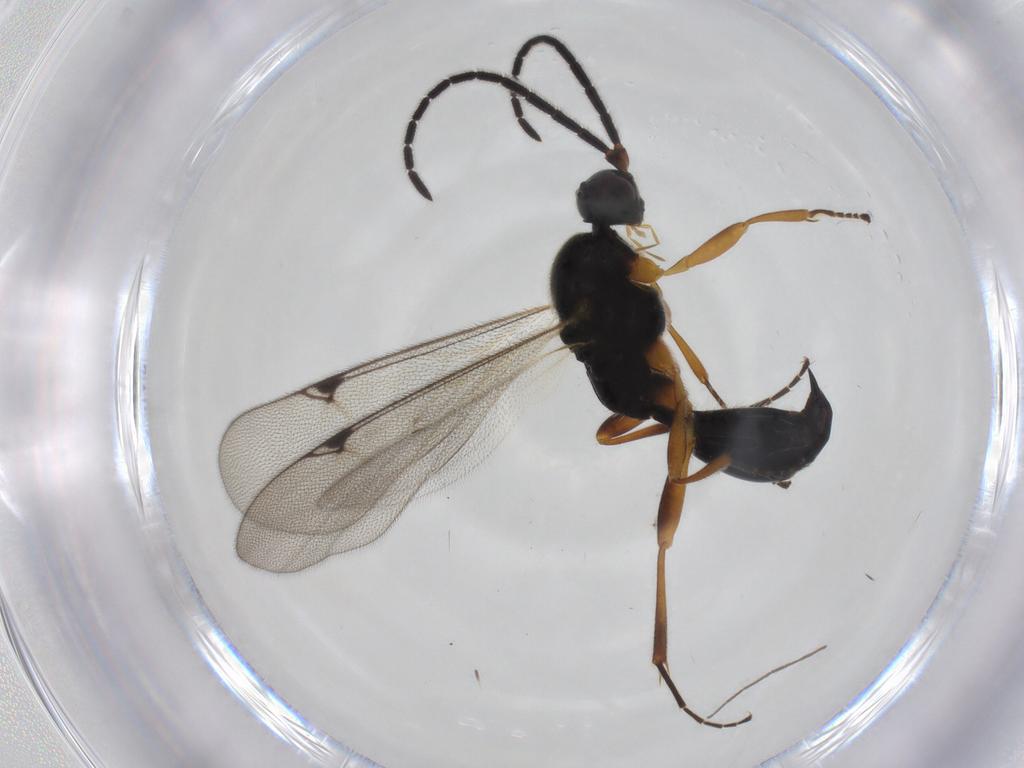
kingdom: Animalia
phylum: Arthropoda
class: Insecta
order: Hymenoptera
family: Proctotrupidae
